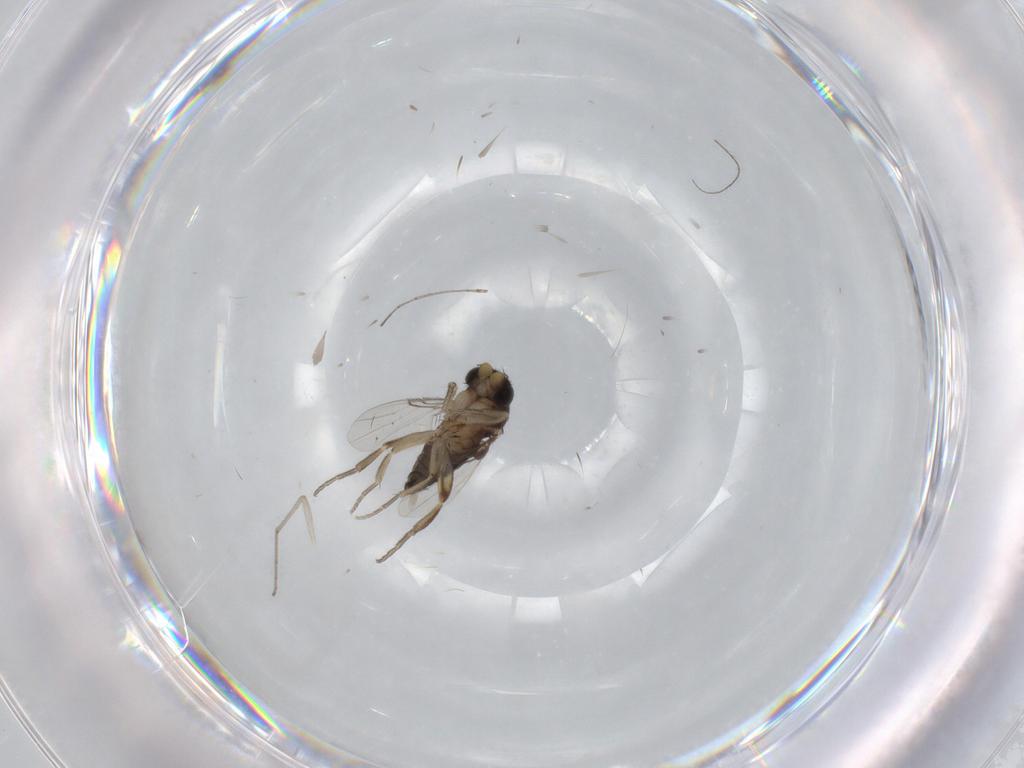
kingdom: Animalia
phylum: Arthropoda
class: Insecta
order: Diptera
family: Phoridae
